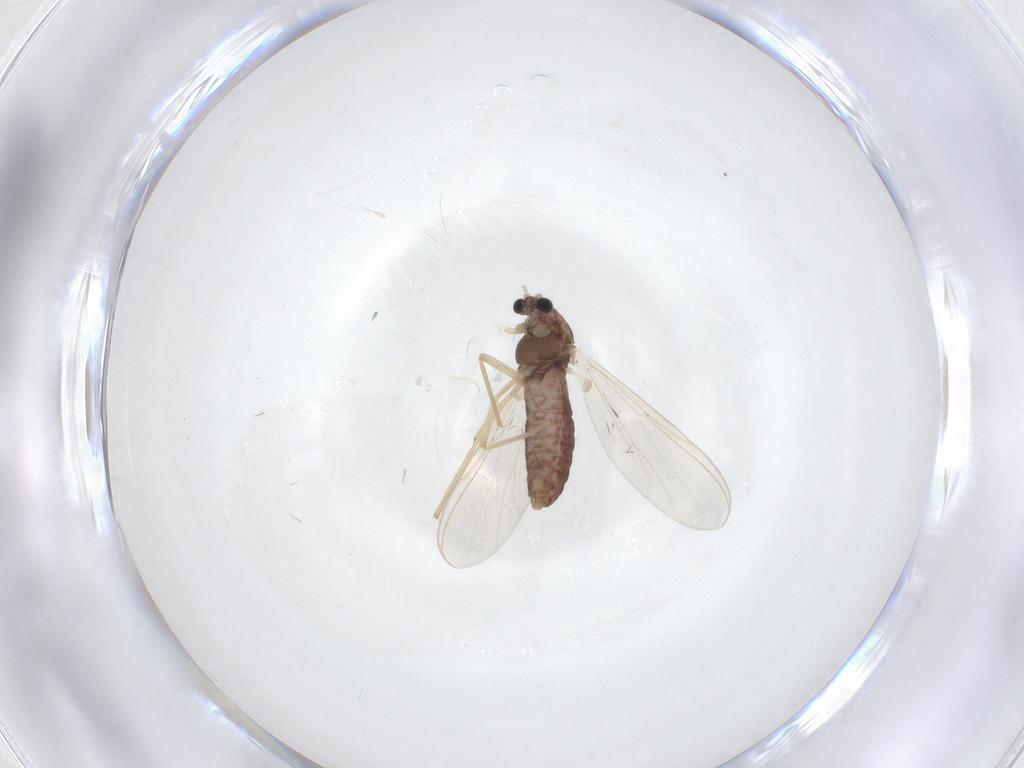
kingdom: Animalia
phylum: Arthropoda
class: Insecta
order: Diptera
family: Chironomidae
